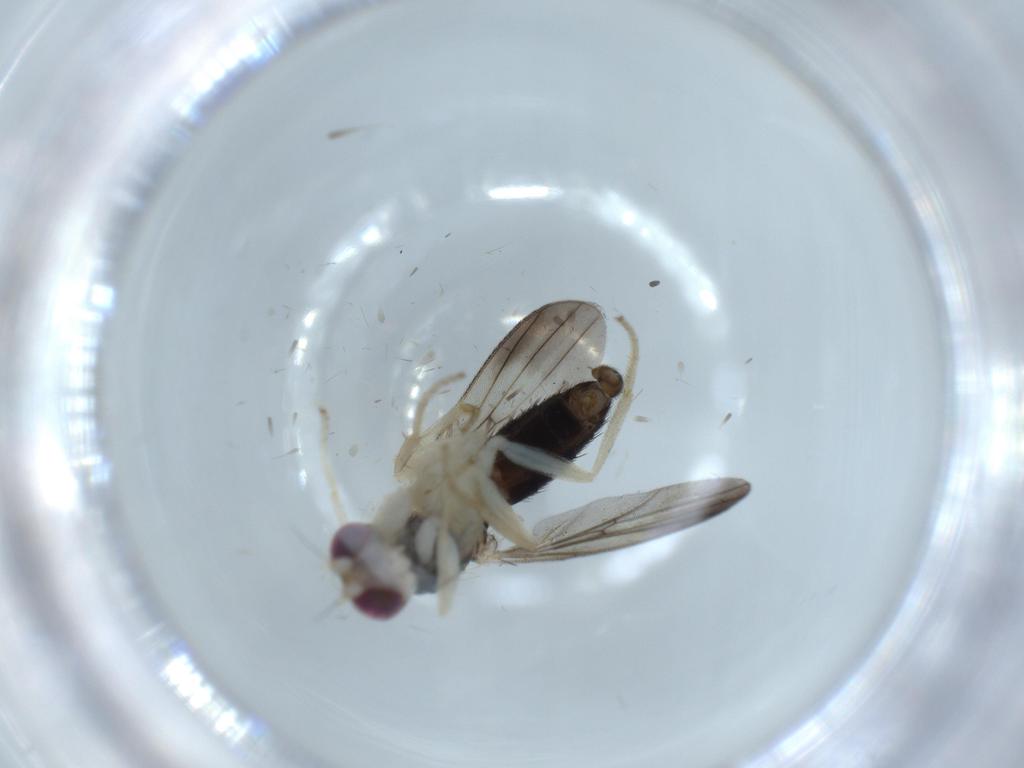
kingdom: Animalia
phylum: Arthropoda
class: Insecta
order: Diptera
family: Clusiidae
